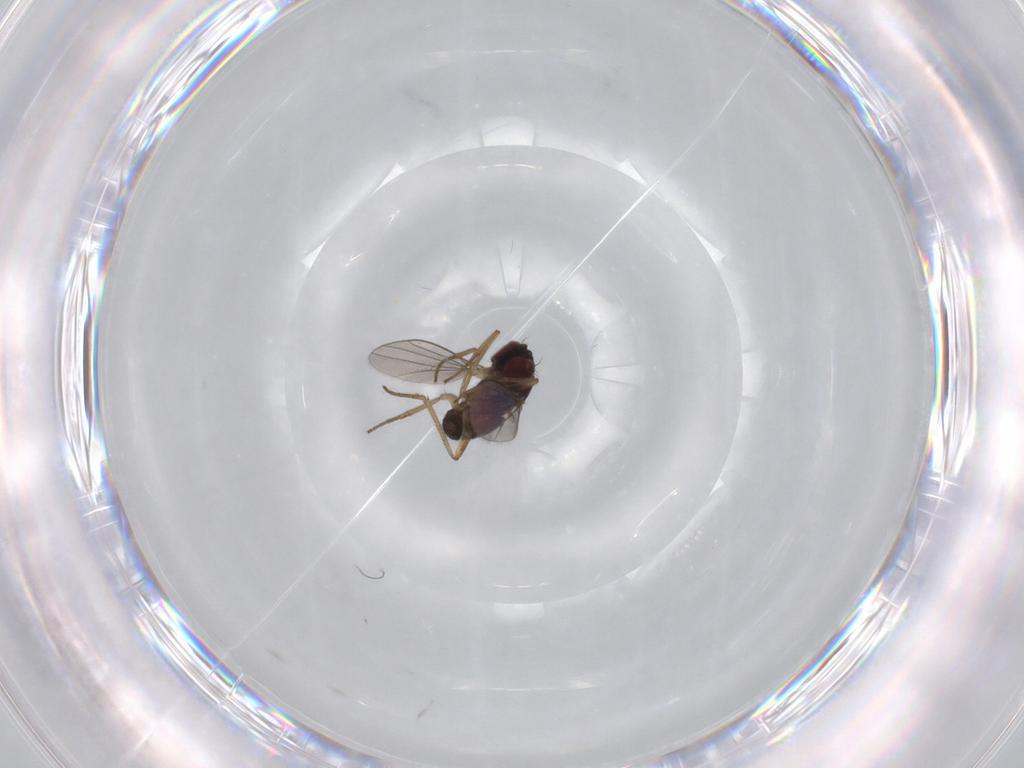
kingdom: Animalia
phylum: Arthropoda
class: Insecta
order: Diptera
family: Dolichopodidae
